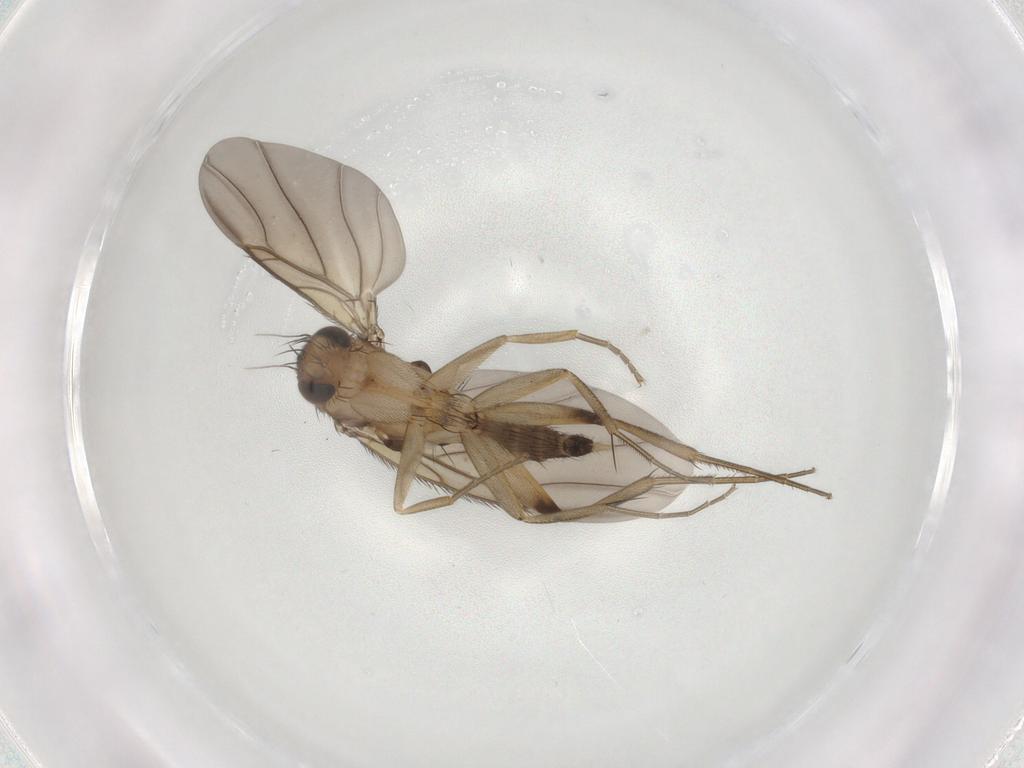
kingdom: Animalia
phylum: Arthropoda
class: Insecta
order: Diptera
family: Phoridae
